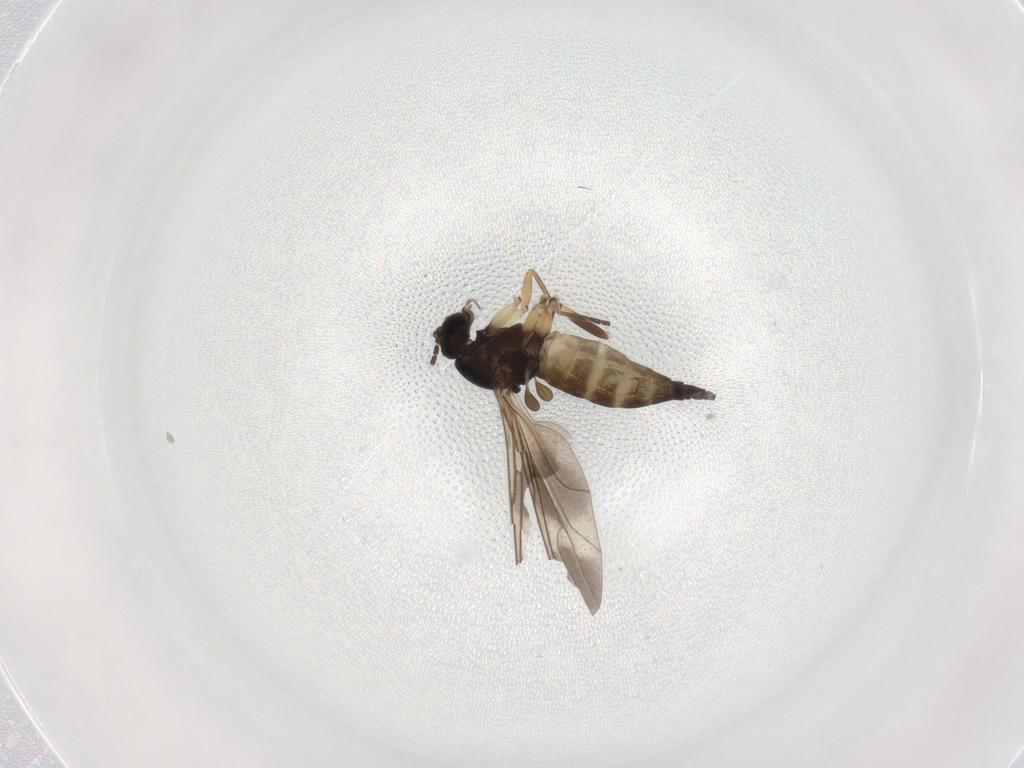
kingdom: Animalia
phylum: Arthropoda
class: Insecta
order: Diptera
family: Sciaridae
